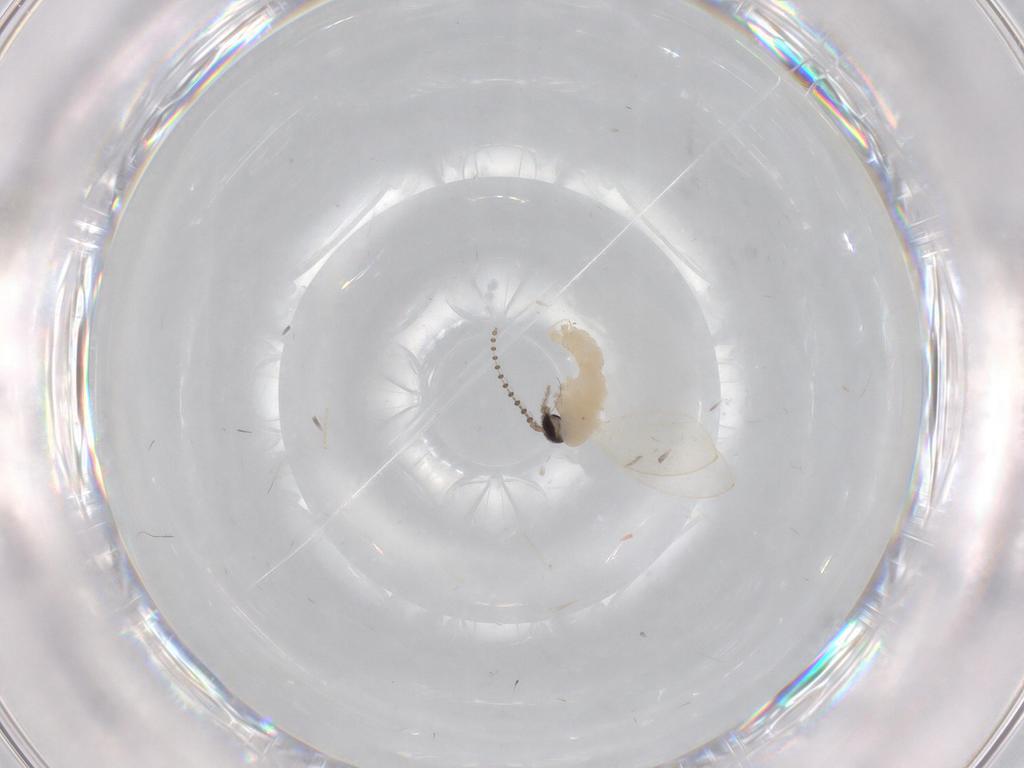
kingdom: Animalia
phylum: Arthropoda
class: Insecta
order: Diptera
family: Psychodidae
